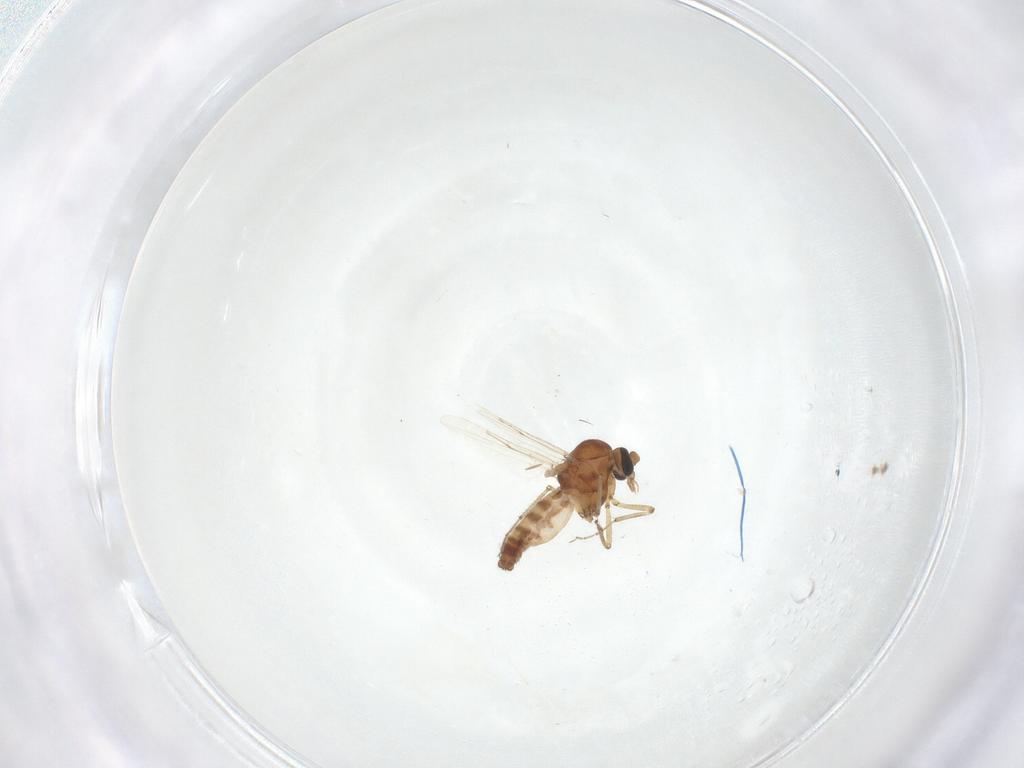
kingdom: Animalia
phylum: Arthropoda
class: Insecta
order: Diptera
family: Ceratopogonidae
